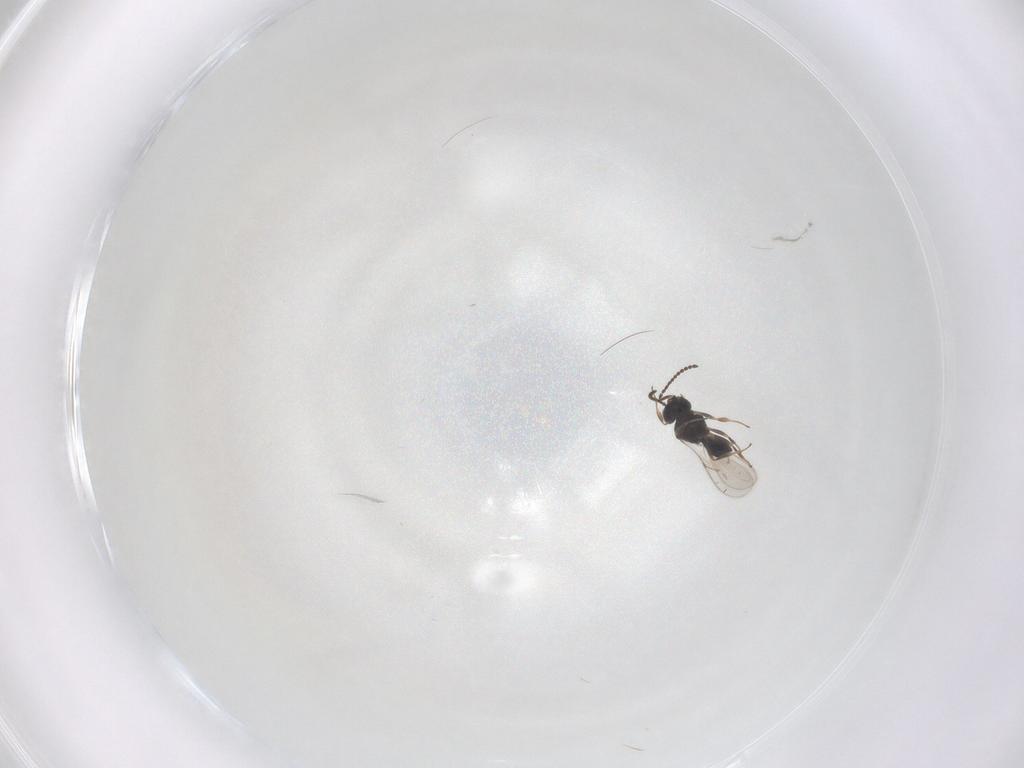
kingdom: Animalia
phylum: Arthropoda
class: Insecta
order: Hymenoptera
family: Scelionidae
